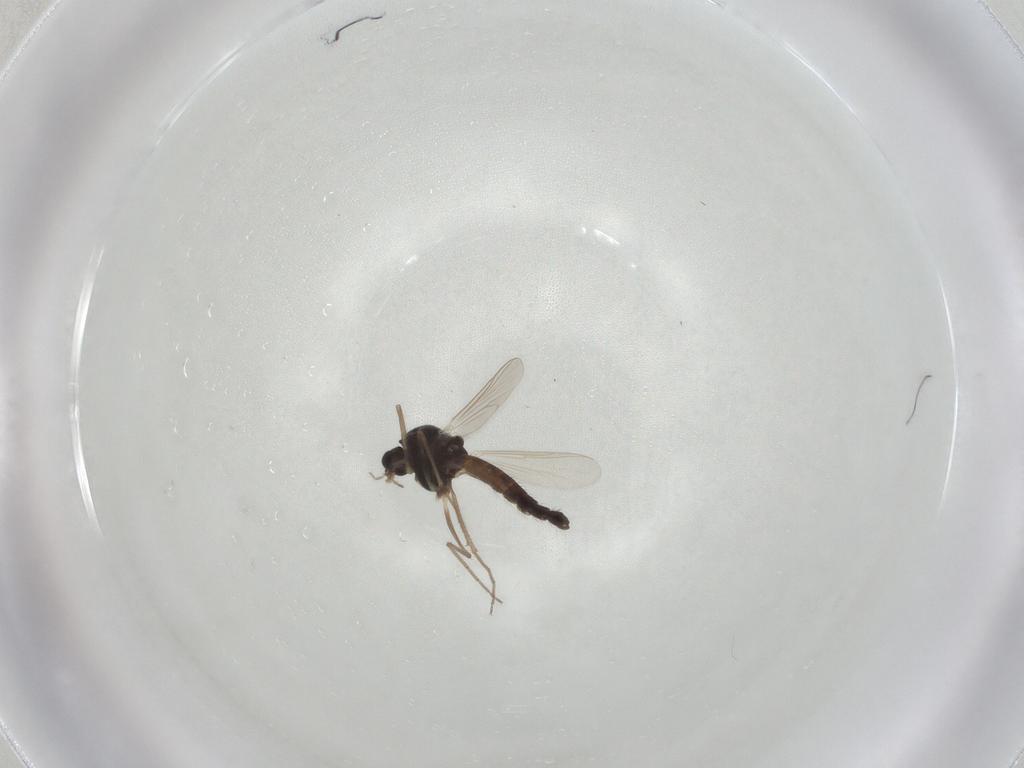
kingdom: Animalia
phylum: Arthropoda
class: Insecta
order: Diptera
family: Chironomidae
